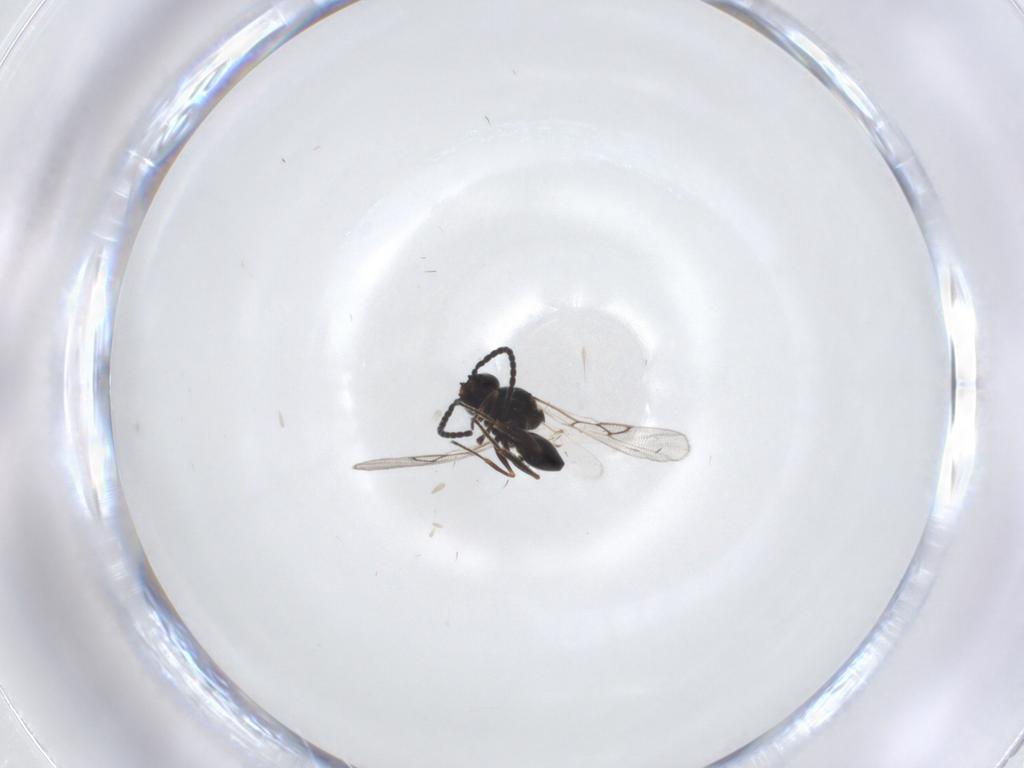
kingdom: Animalia
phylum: Arthropoda
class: Insecta
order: Hymenoptera
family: Figitidae
